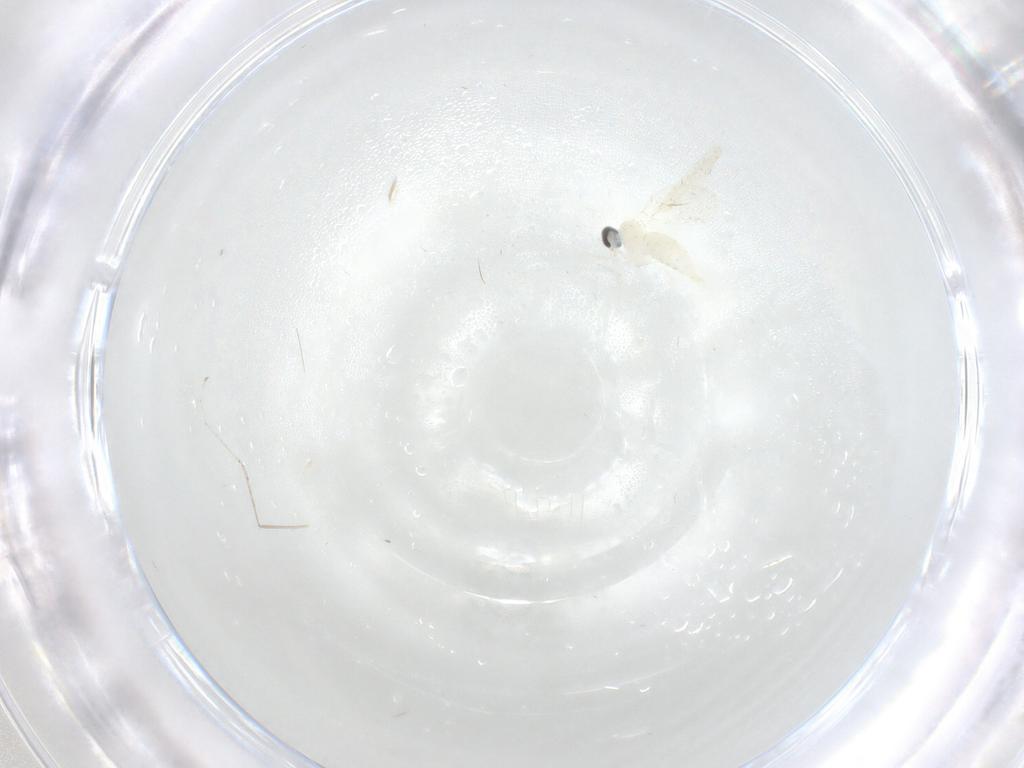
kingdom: Animalia
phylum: Arthropoda
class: Insecta
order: Diptera
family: Cecidomyiidae
